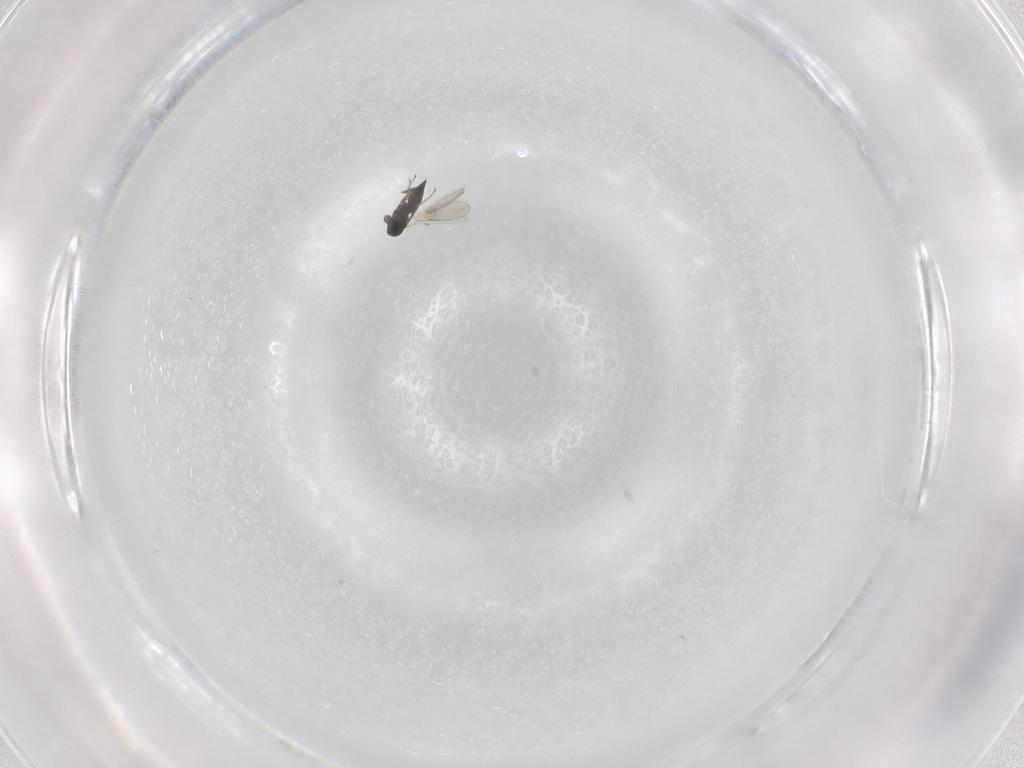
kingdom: Animalia
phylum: Arthropoda
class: Insecta
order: Hymenoptera
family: Scelionidae
